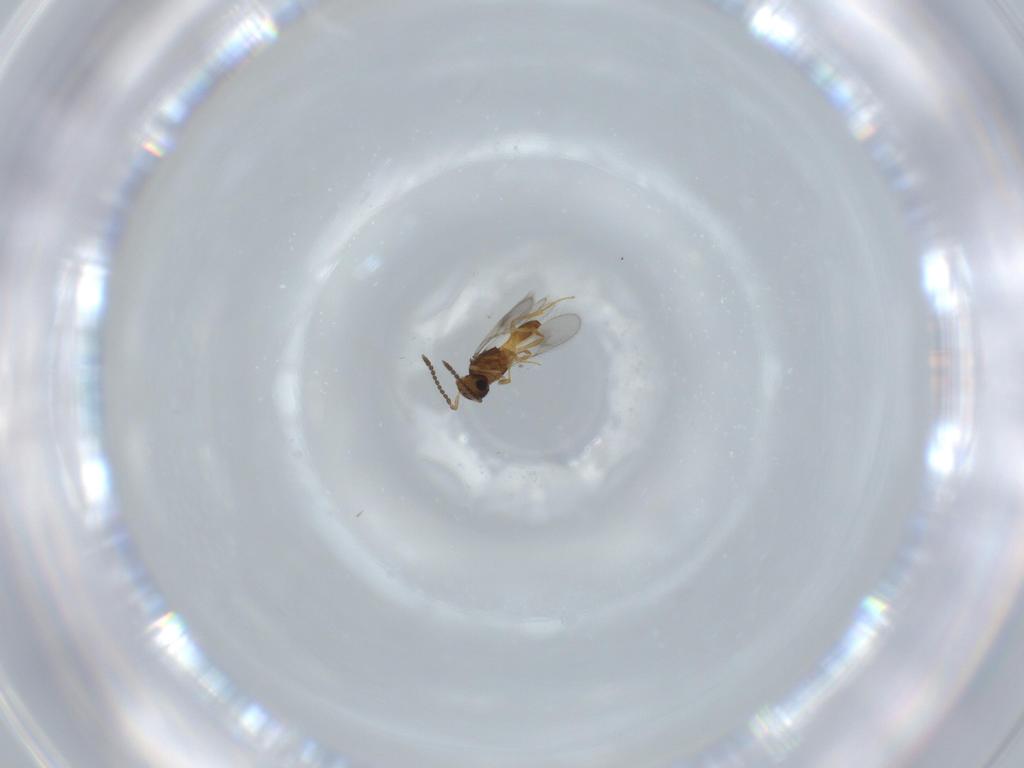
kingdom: Animalia
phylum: Arthropoda
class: Insecta
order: Hymenoptera
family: Scelionidae
